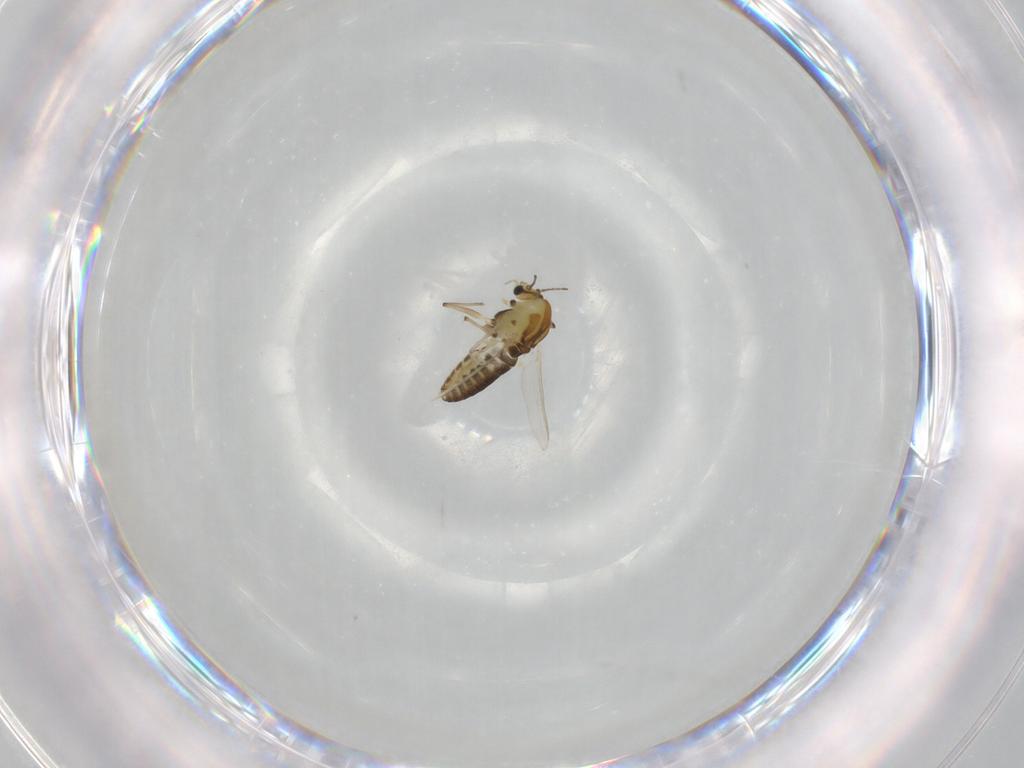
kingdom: Animalia
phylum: Arthropoda
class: Insecta
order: Diptera
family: Chironomidae
